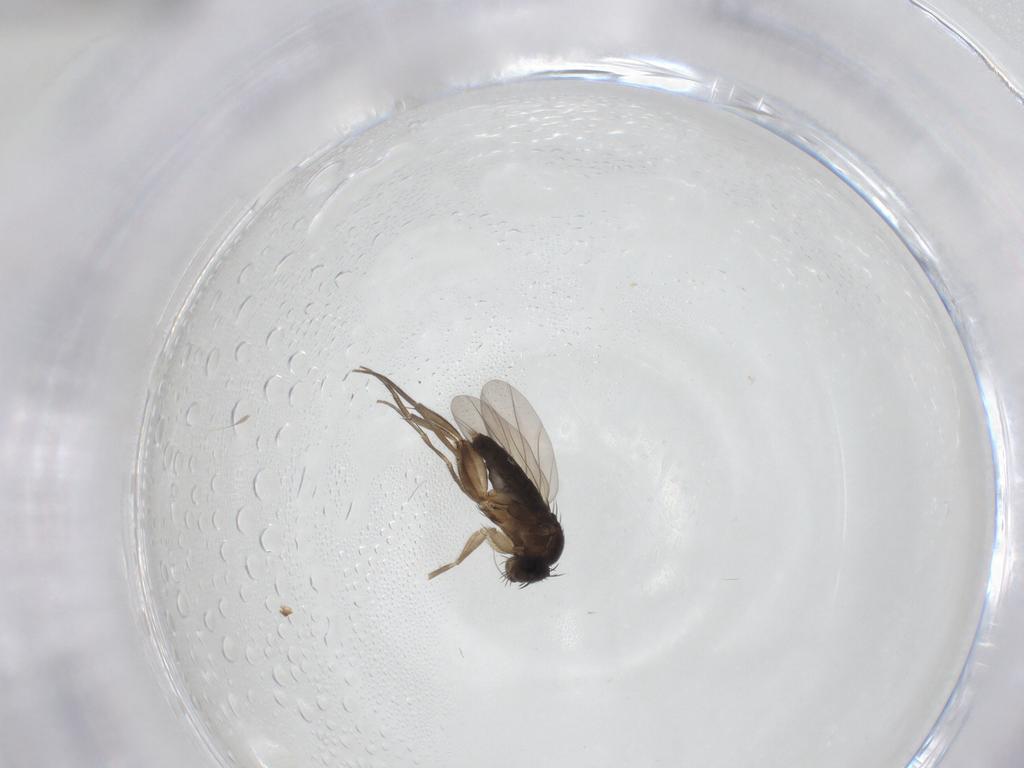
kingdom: Animalia
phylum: Arthropoda
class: Insecta
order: Diptera
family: Phoridae
